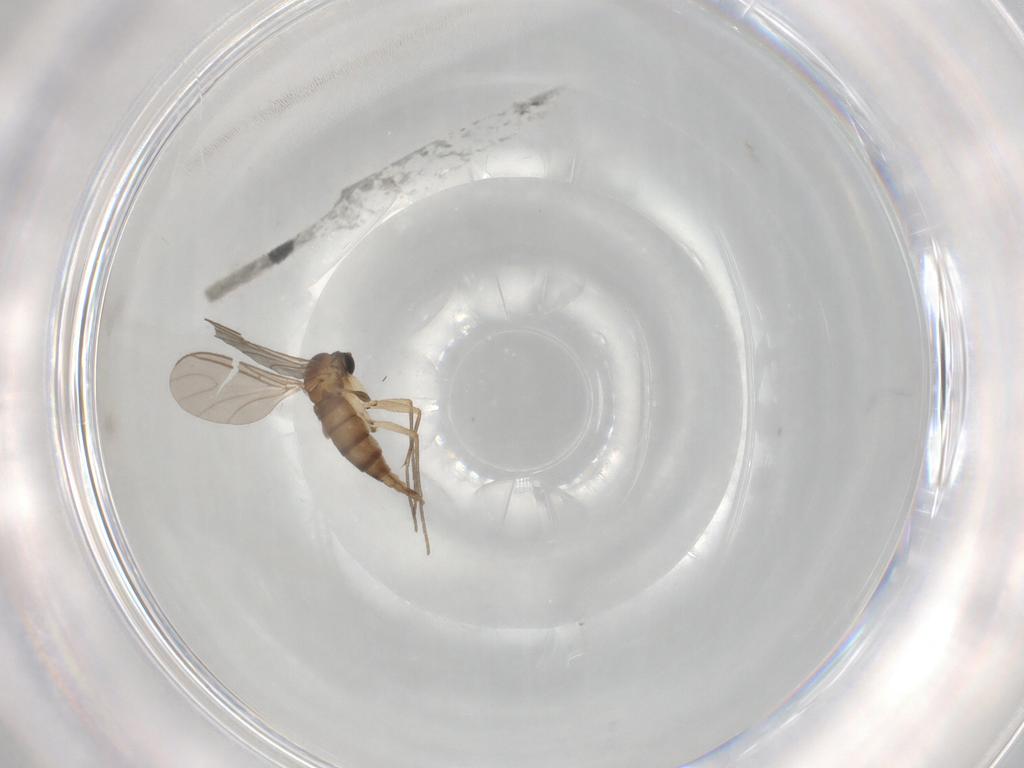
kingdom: Animalia
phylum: Arthropoda
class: Insecta
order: Diptera
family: Sciaridae
